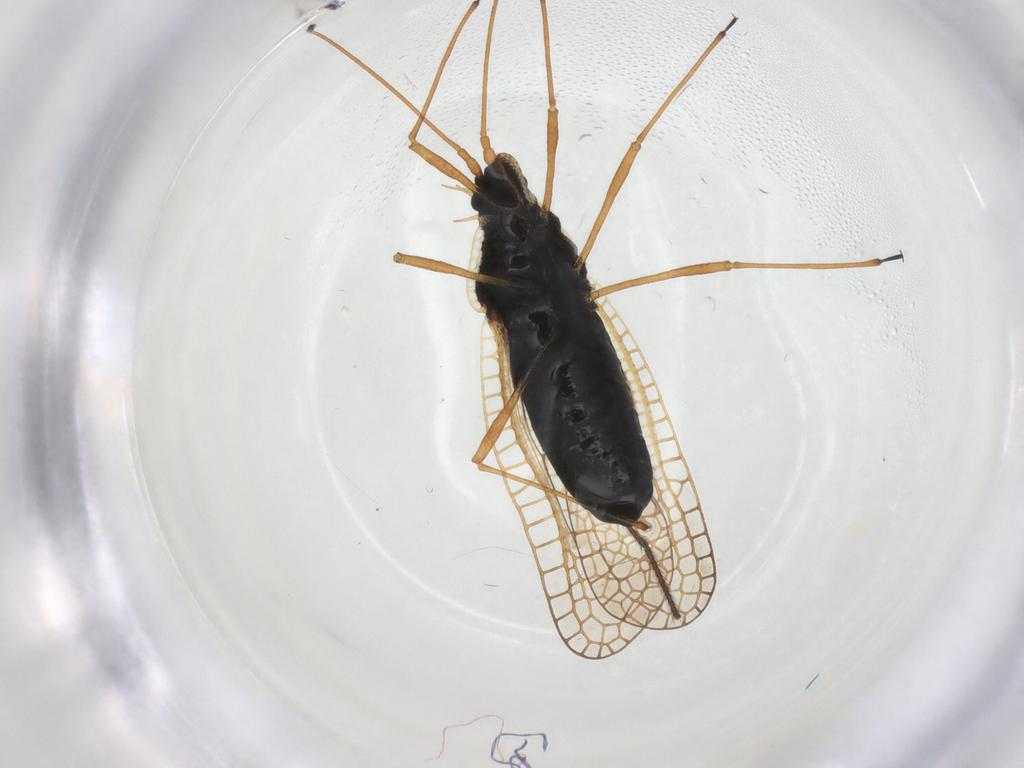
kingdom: Animalia
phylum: Arthropoda
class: Insecta
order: Hemiptera
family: Tingidae
